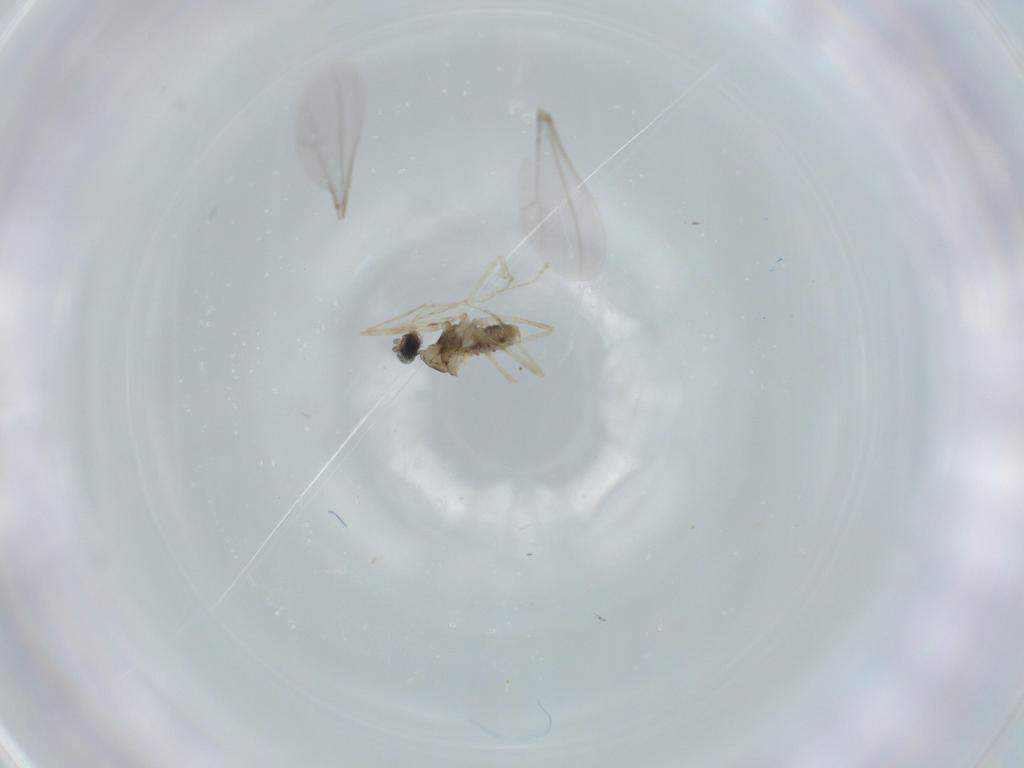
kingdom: Animalia
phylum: Arthropoda
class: Insecta
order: Diptera
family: Cecidomyiidae
